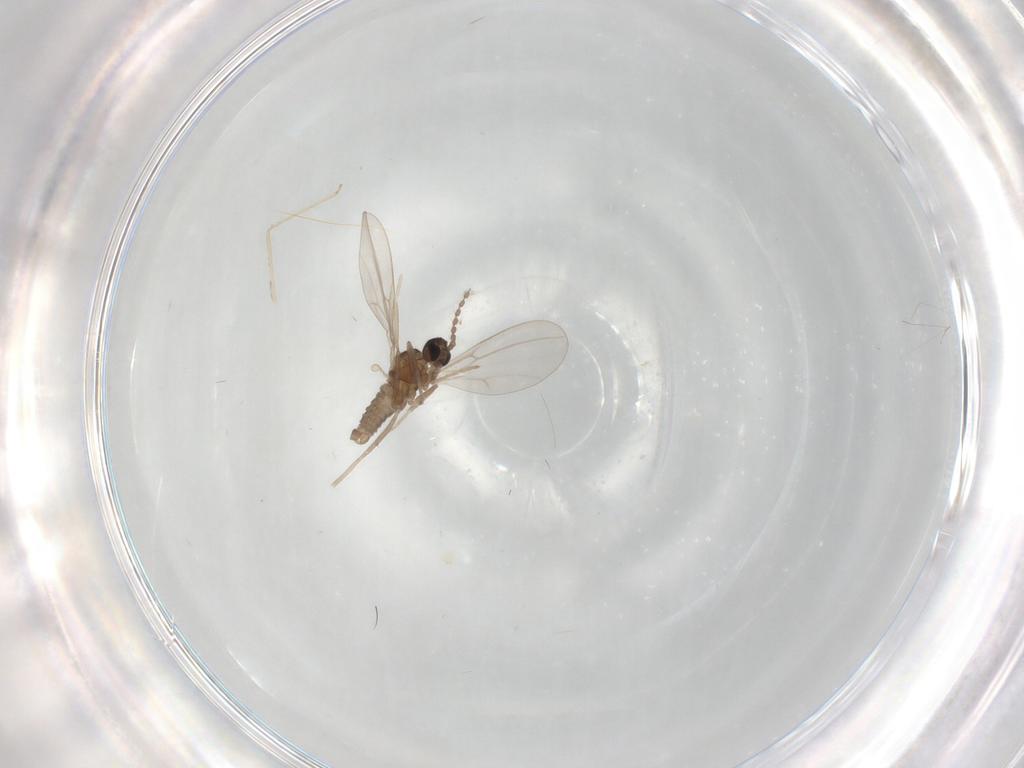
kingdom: Animalia
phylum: Arthropoda
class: Insecta
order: Diptera
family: Cecidomyiidae
